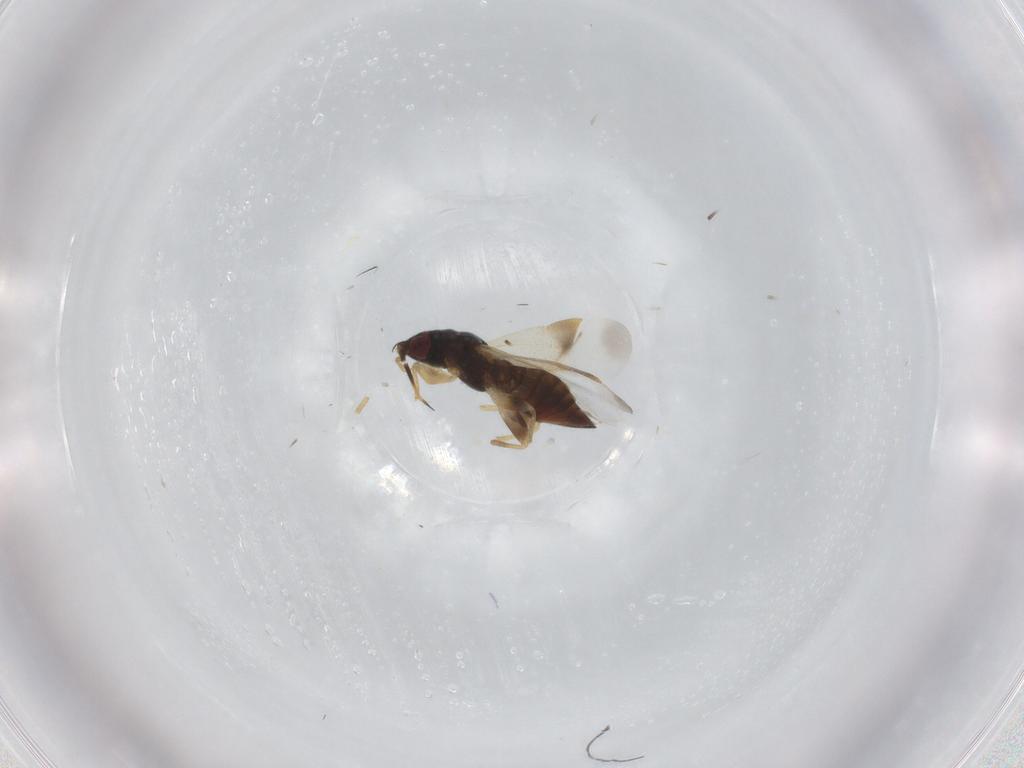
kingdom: Animalia
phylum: Arthropoda
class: Insecta
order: Hemiptera
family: Anthocoridae
